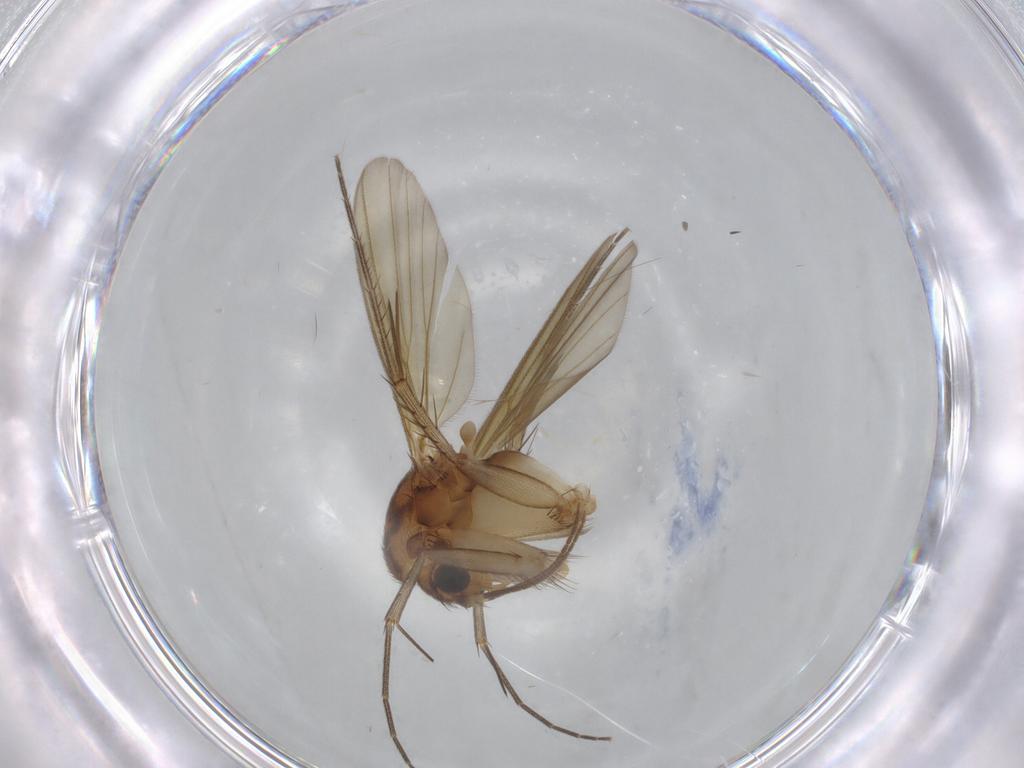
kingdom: Animalia
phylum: Arthropoda
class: Insecta
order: Diptera
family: Mycetophilidae
